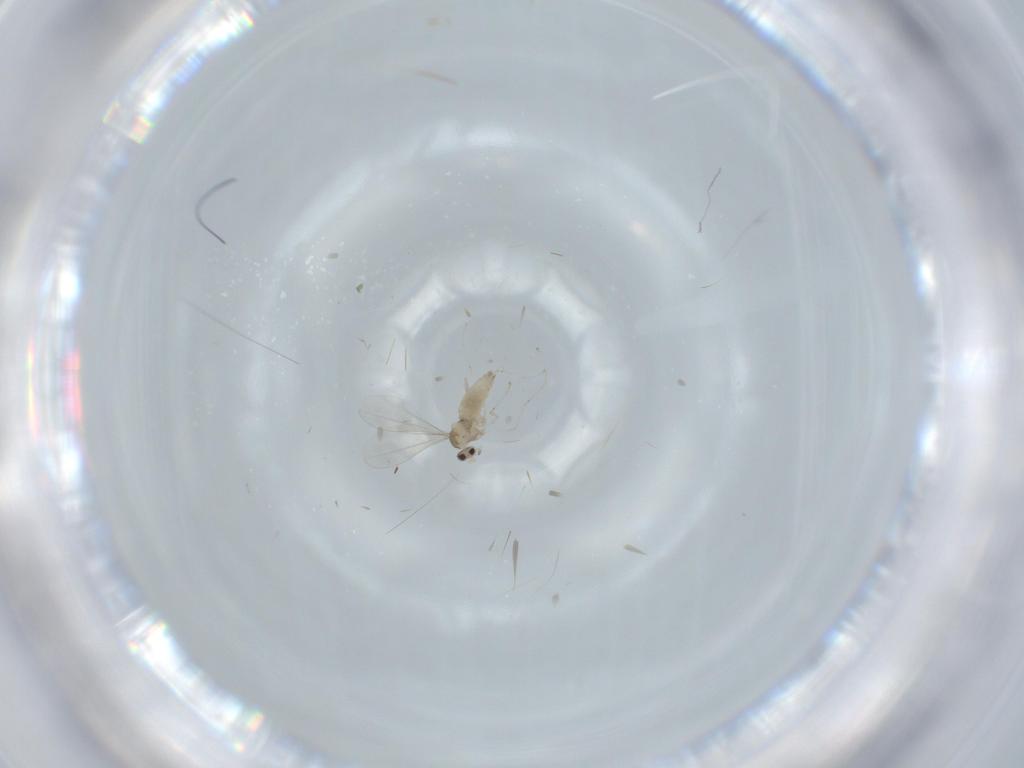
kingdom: Animalia
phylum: Arthropoda
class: Insecta
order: Diptera
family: Cecidomyiidae
